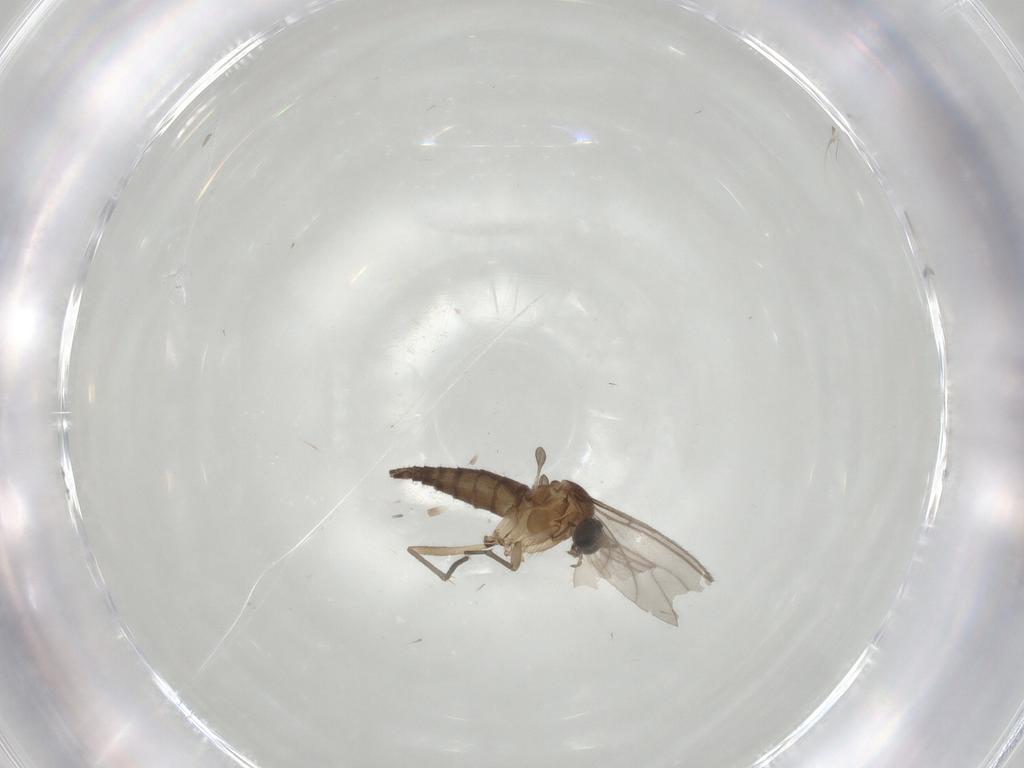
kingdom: Animalia
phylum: Arthropoda
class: Insecta
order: Diptera
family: Sciaridae
